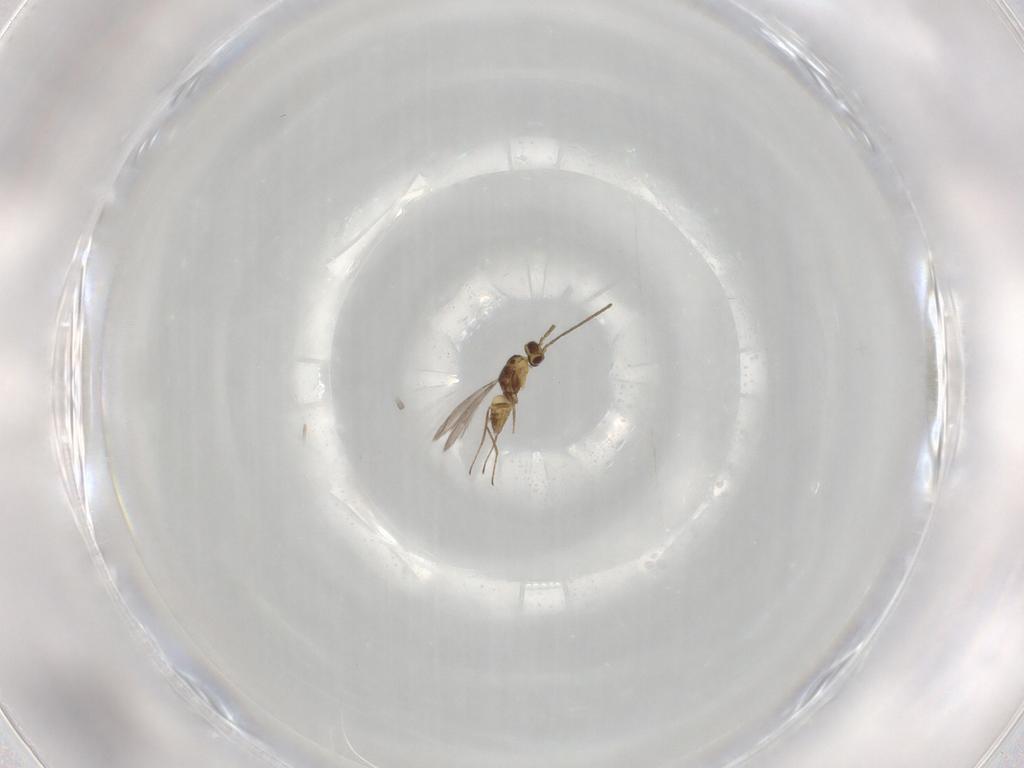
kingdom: Animalia
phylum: Arthropoda
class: Insecta
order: Hymenoptera
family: Mymaridae
